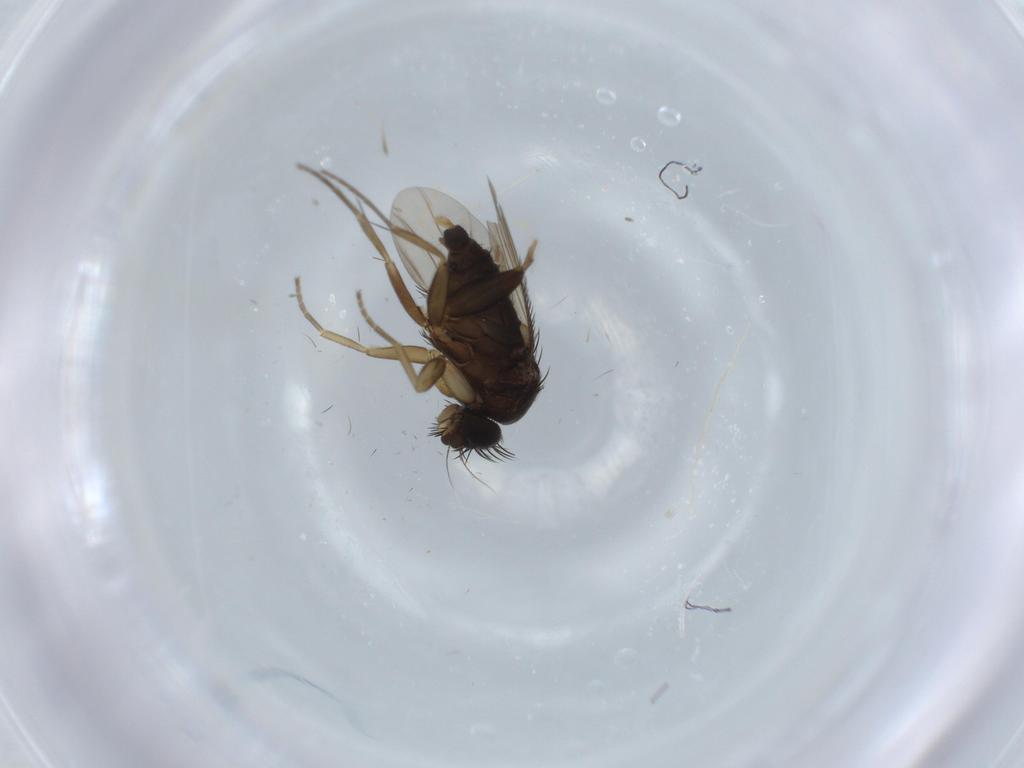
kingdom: Animalia
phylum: Arthropoda
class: Insecta
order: Diptera
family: Phoridae
